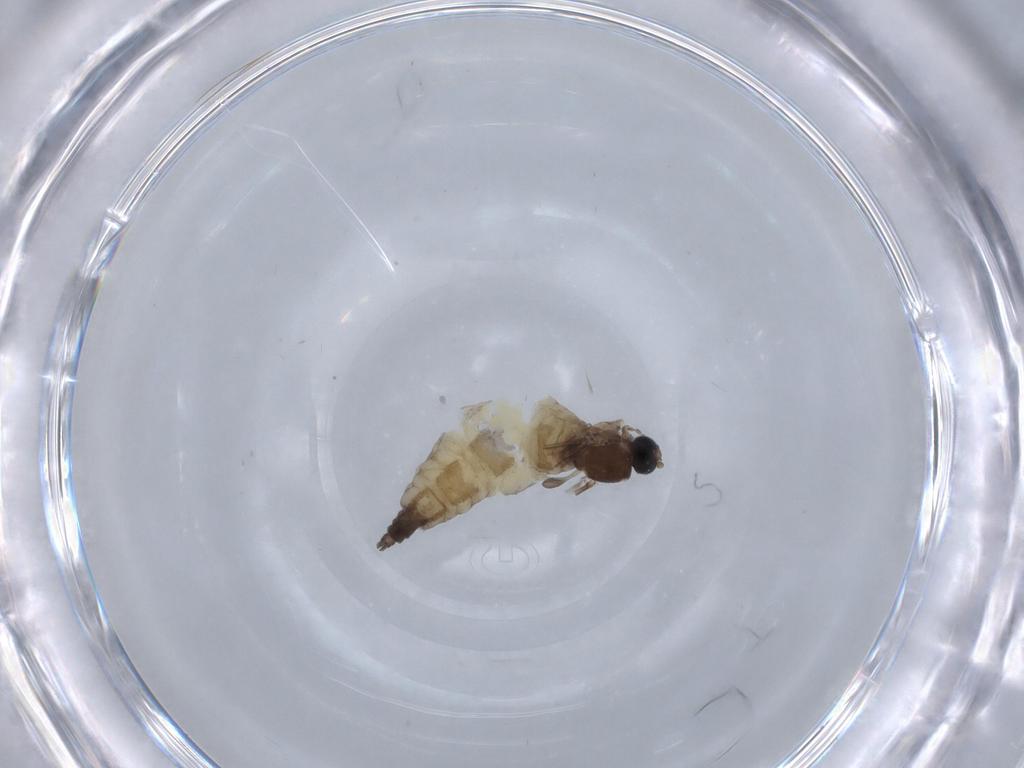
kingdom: Animalia
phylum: Arthropoda
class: Insecta
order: Diptera
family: Sciaridae
